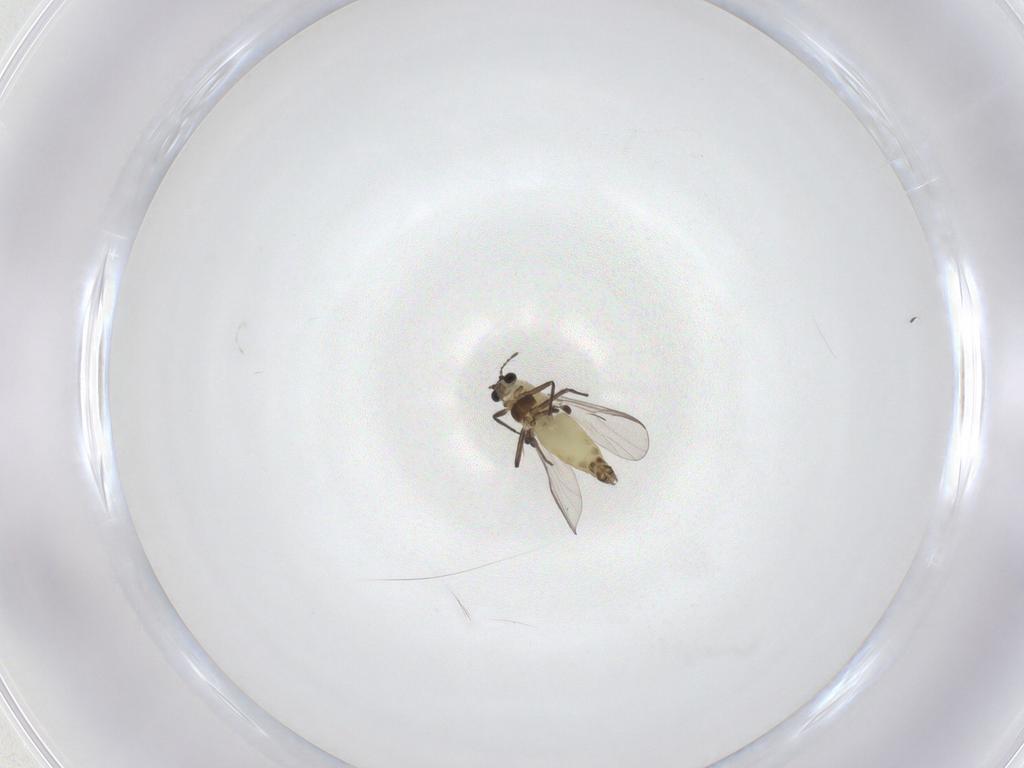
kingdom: Animalia
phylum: Arthropoda
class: Insecta
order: Diptera
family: Chironomidae
